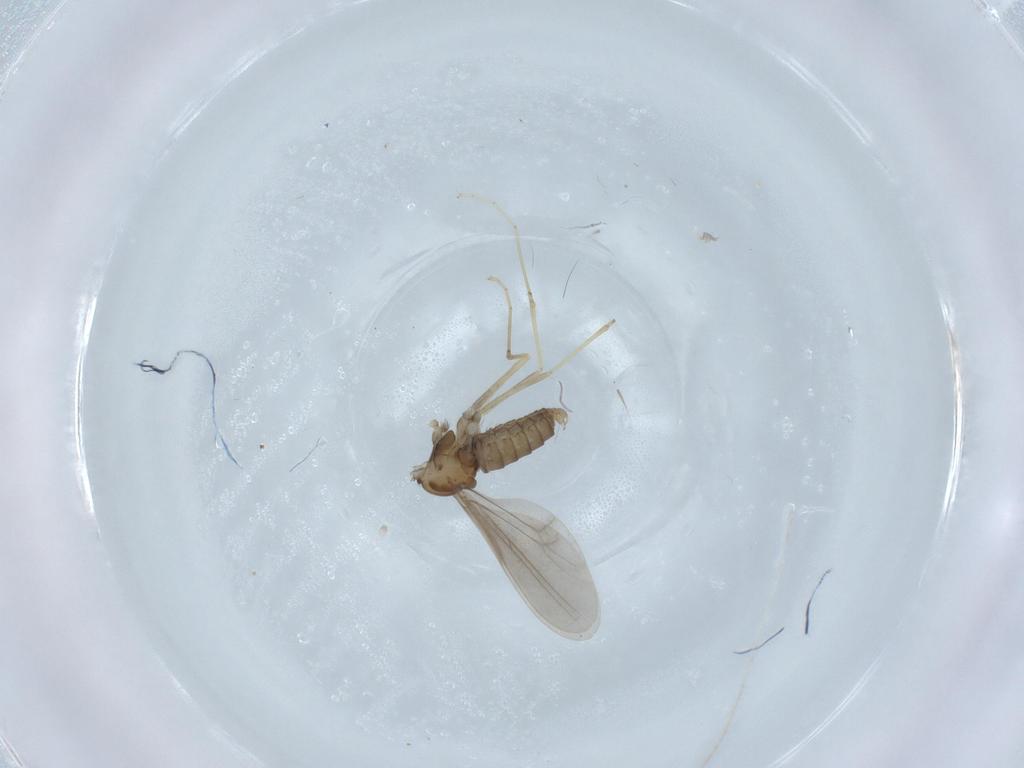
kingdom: Animalia
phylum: Arthropoda
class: Insecta
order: Diptera
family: Cecidomyiidae
